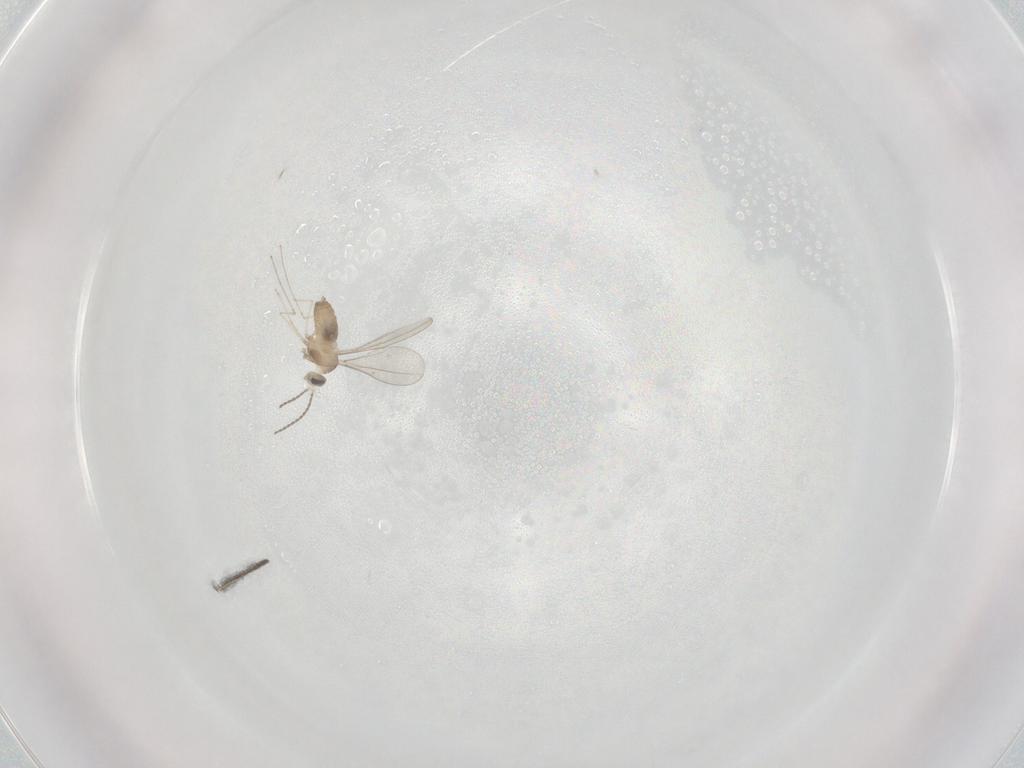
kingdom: Animalia
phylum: Arthropoda
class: Insecta
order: Diptera
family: Cecidomyiidae
